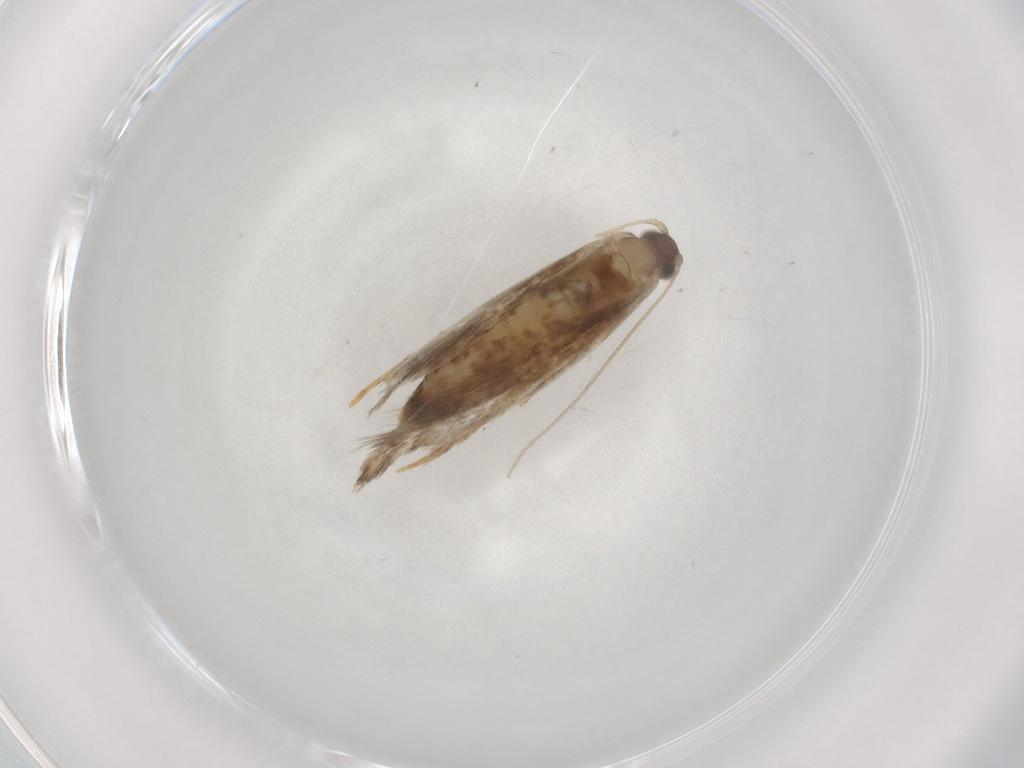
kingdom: Animalia
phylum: Arthropoda
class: Insecta
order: Lepidoptera
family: Tineidae
